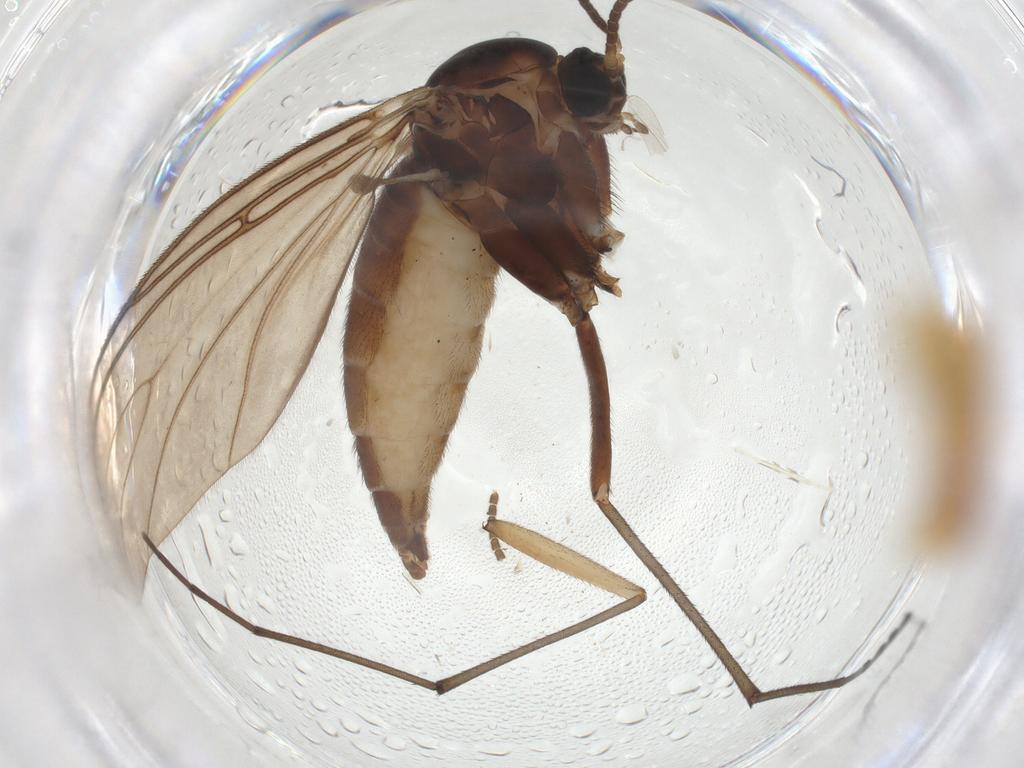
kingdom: Animalia
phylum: Arthropoda
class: Insecta
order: Diptera
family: Sciaridae
